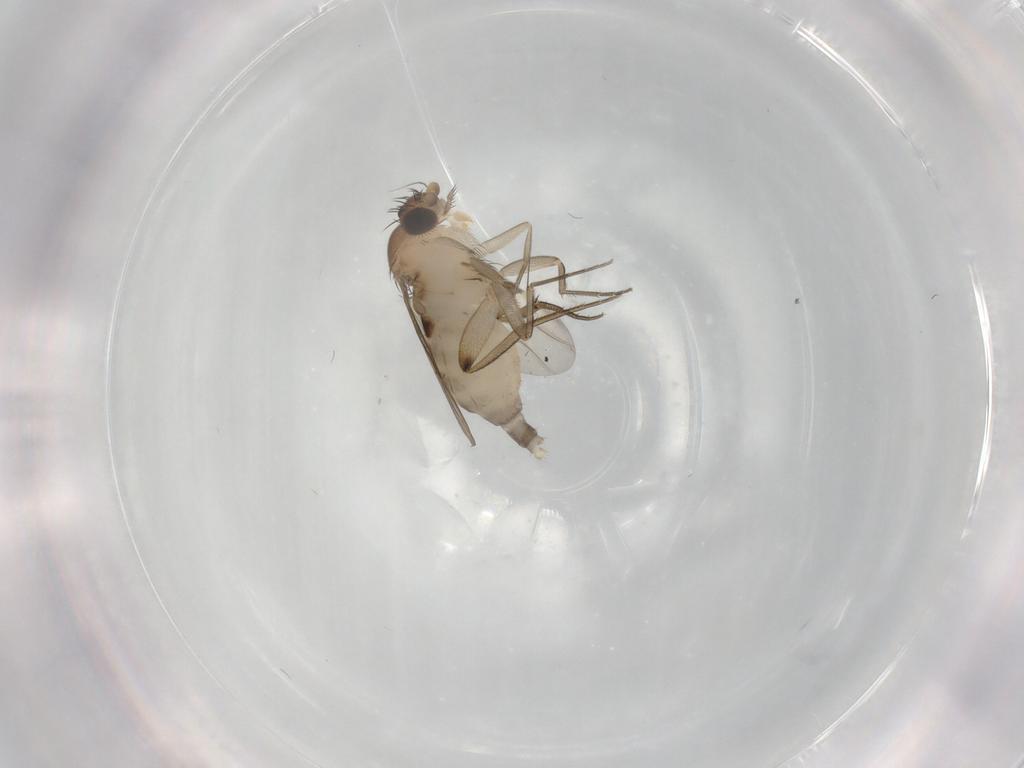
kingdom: Animalia
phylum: Arthropoda
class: Insecta
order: Diptera
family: Phoridae
